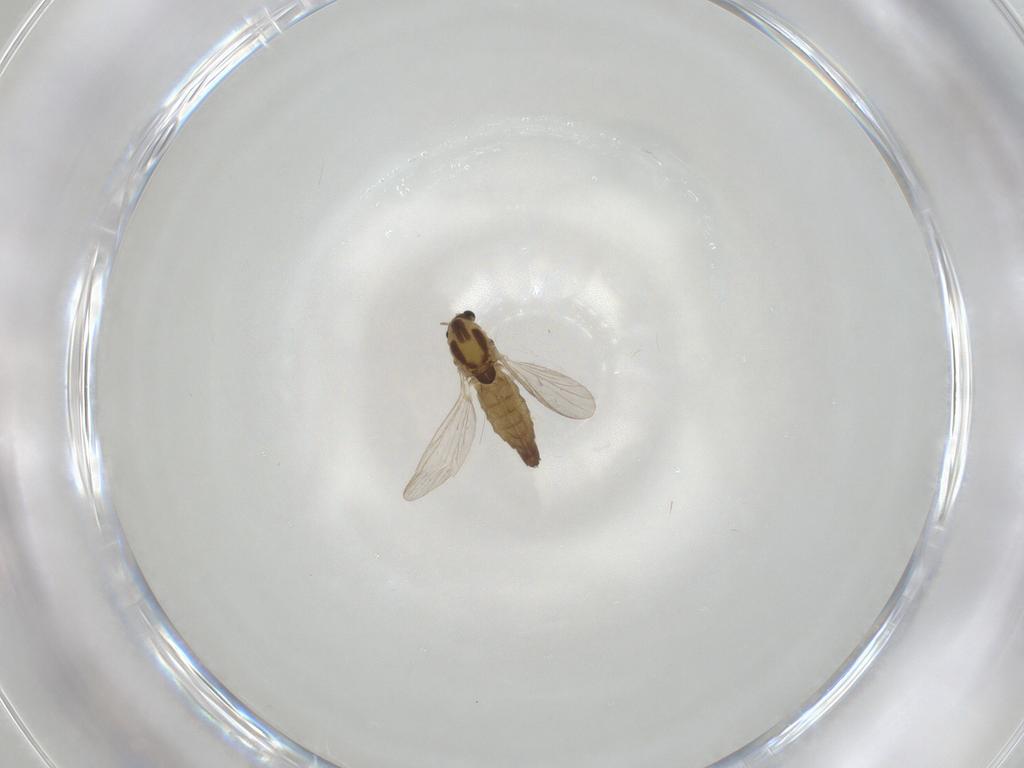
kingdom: Animalia
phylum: Arthropoda
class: Insecta
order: Diptera
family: Chironomidae
